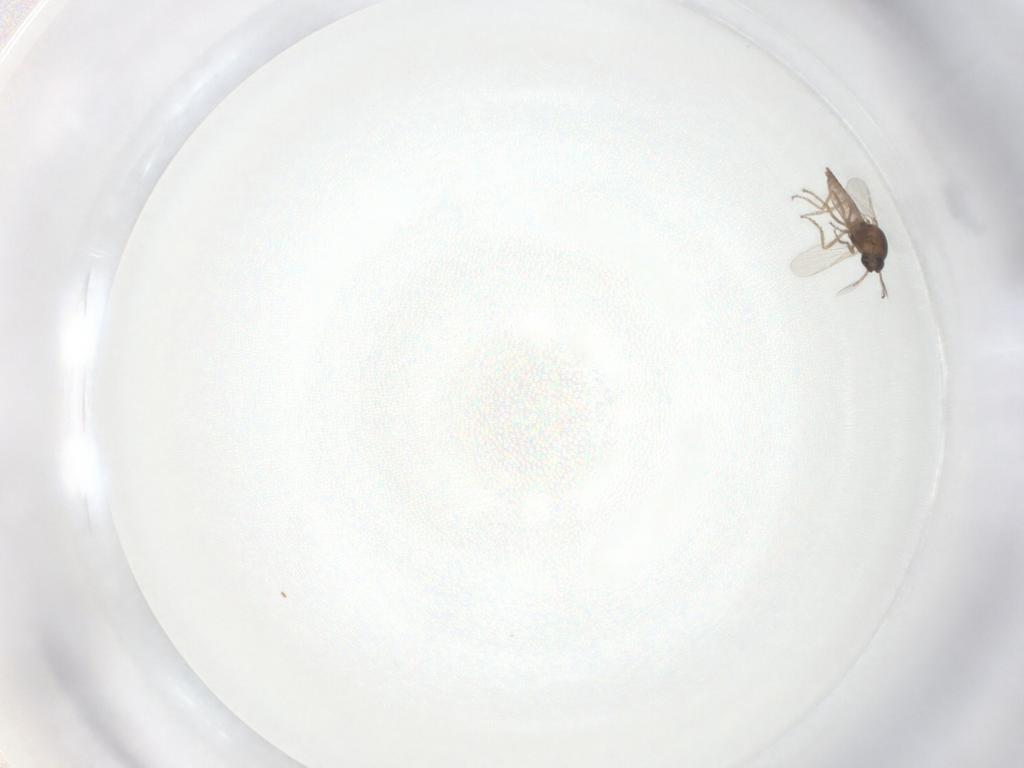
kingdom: Animalia
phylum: Arthropoda
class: Insecta
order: Diptera
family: Ceratopogonidae
